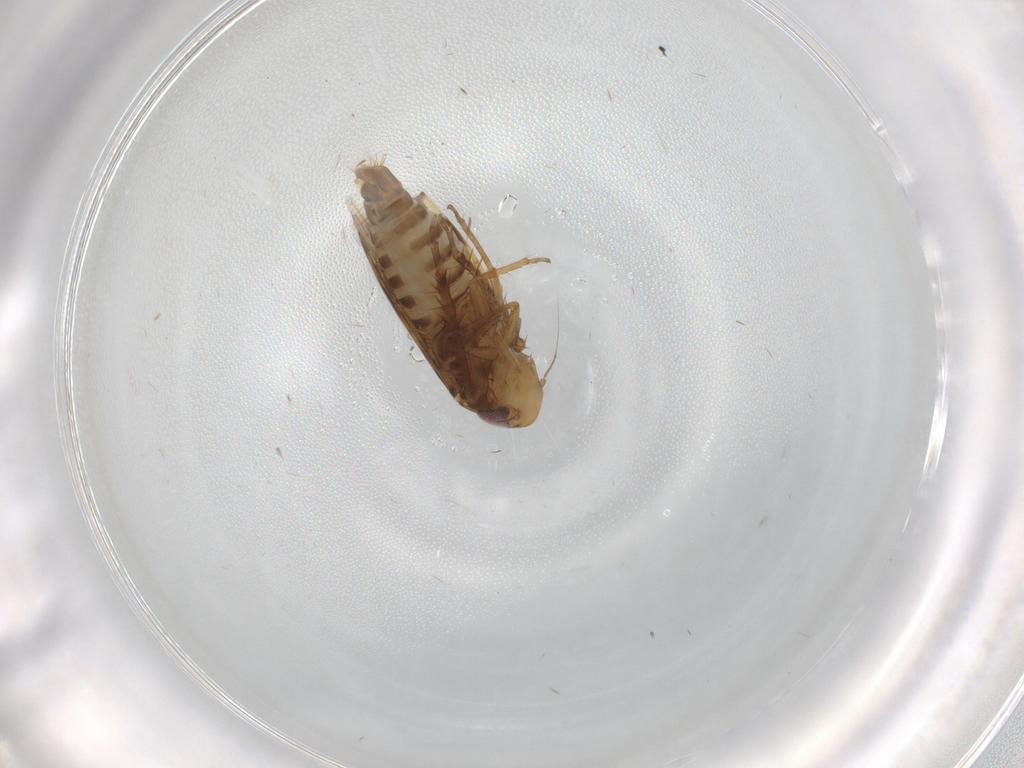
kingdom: Animalia
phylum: Arthropoda
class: Insecta
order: Hemiptera
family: Cicadellidae
